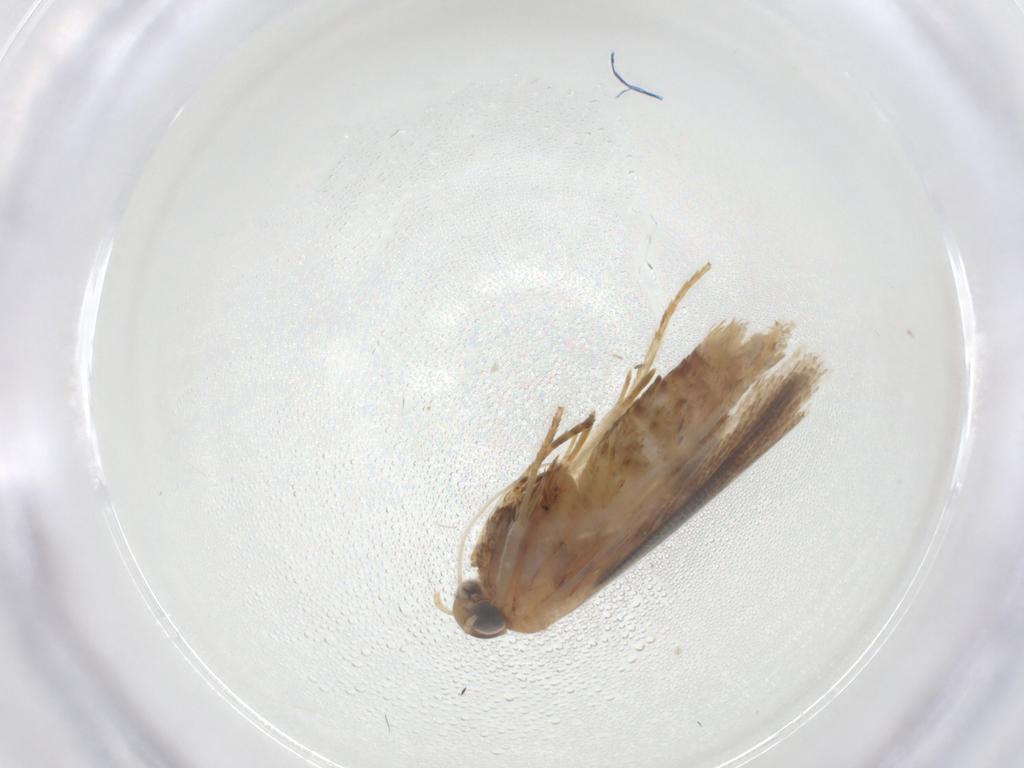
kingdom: Animalia
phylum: Arthropoda
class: Insecta
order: Lepidoptera
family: Gelechiidae
